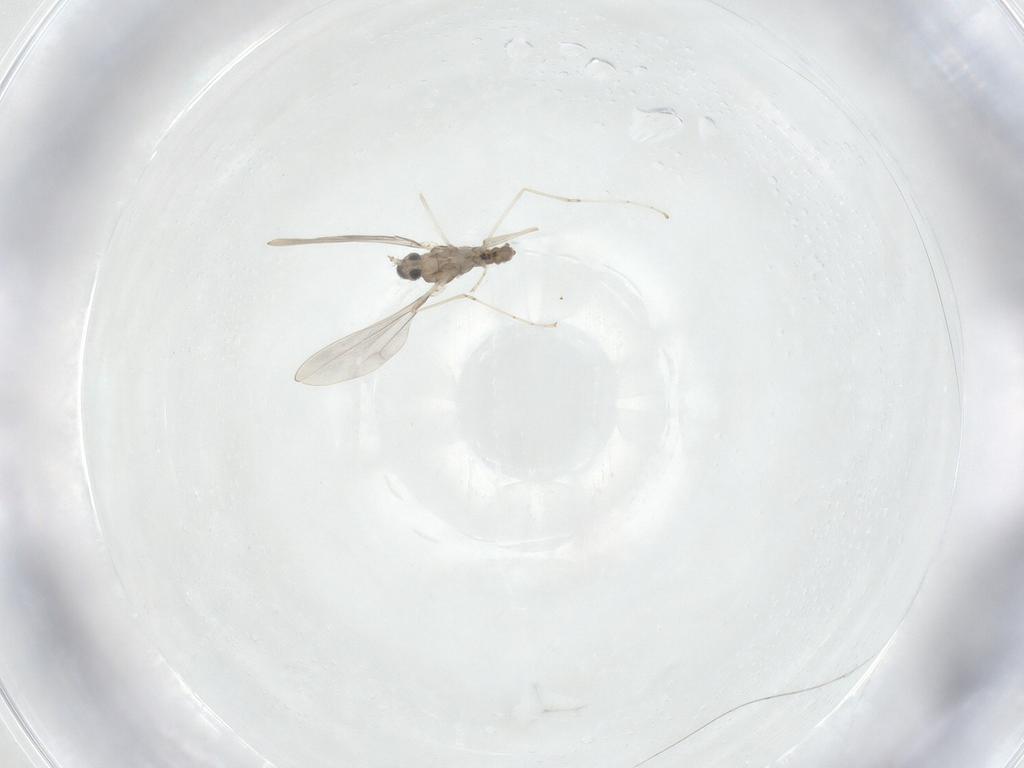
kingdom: Animalia
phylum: Arthropoda
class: Insecta
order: Diptera
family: Cecidomyiidae
